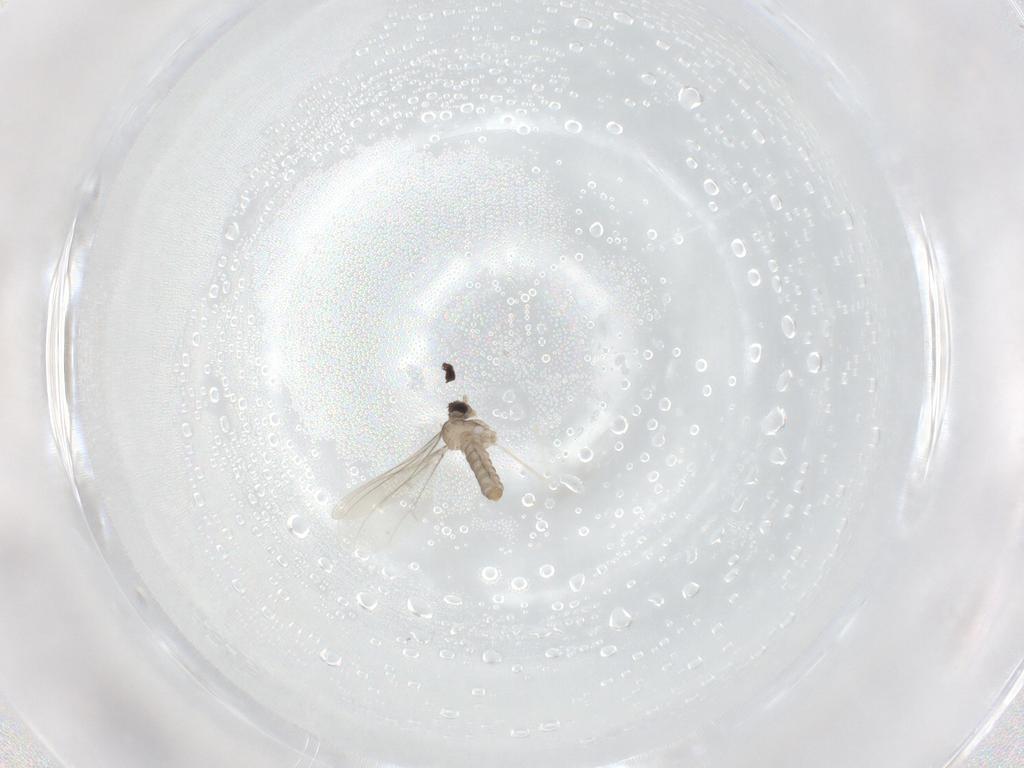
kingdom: Animalia
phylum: Arthropoda
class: Insecta
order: Diptera
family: Cecidomyiidae
